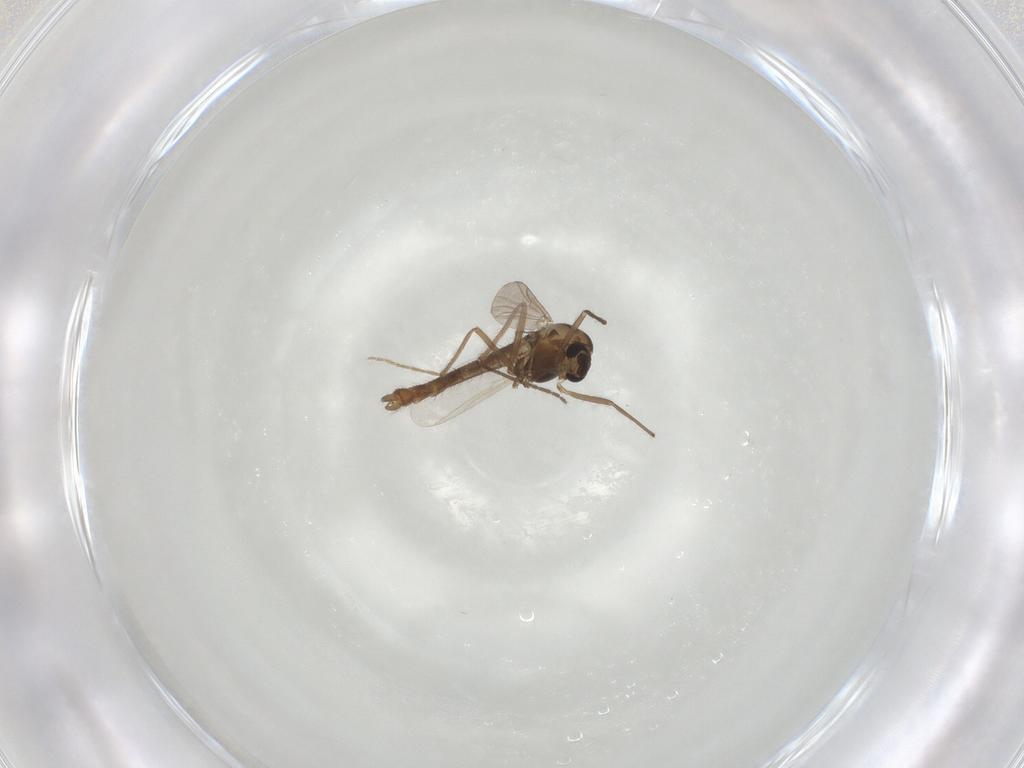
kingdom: Animalia
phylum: Arthropoda
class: Insecta
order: Diptera
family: Chironomidae
